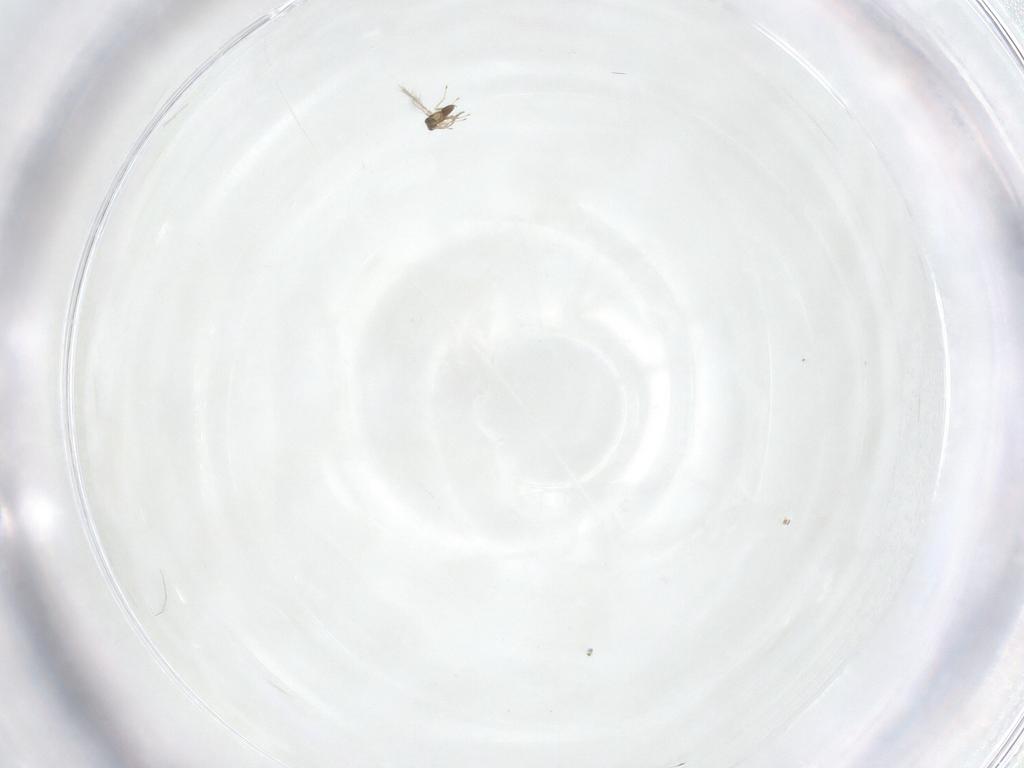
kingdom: Animalia
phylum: Arthropoda
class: Insecta
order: Hymenoptera
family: Mymaridae
